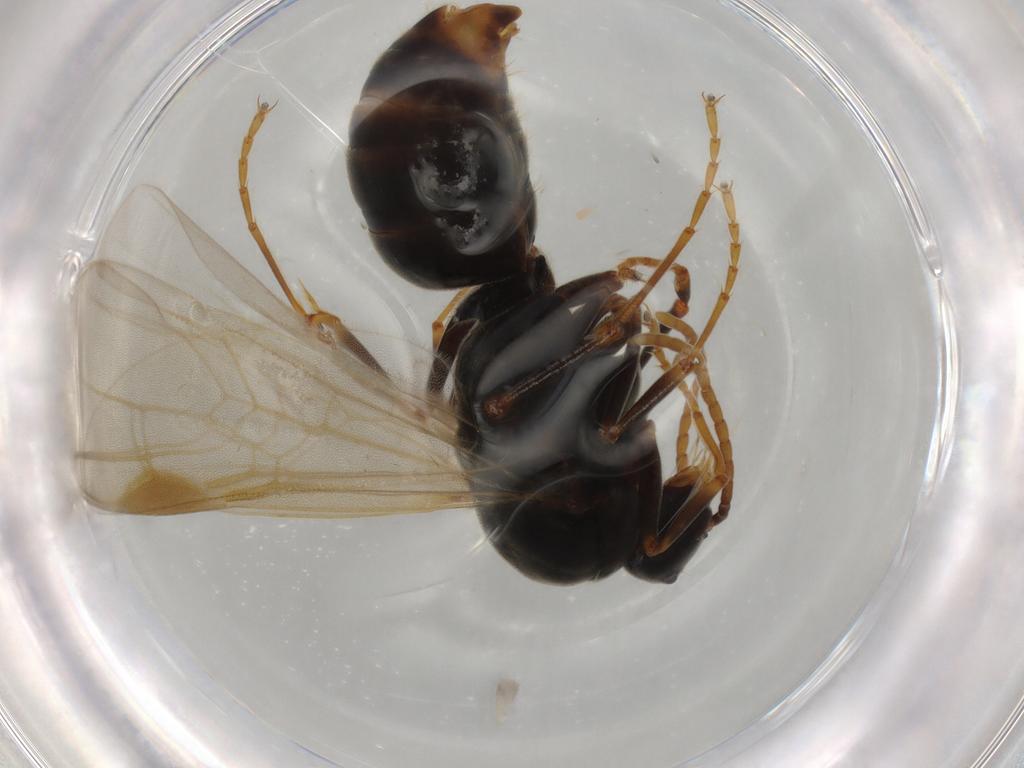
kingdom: Animalia
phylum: Arthropoda
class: Insecta
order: Hymenoptera
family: Formicidae
